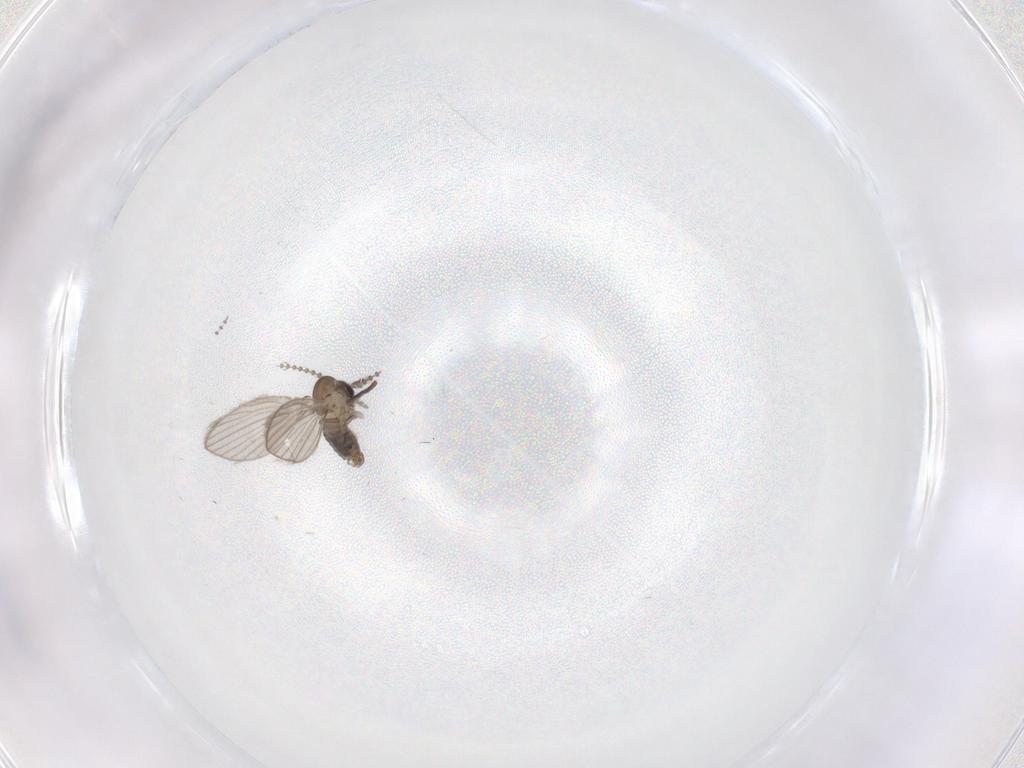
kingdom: Animalia
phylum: Arthropoda
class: Insecta
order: Diptera
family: Psychodidae
